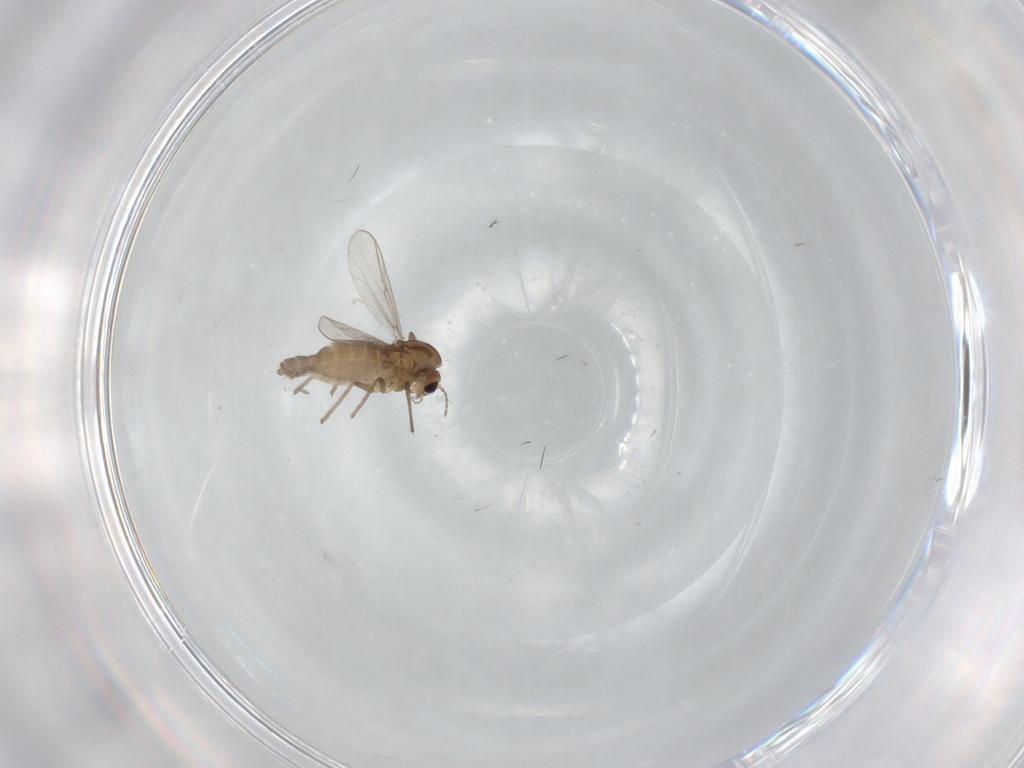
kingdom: Animalia
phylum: Arthropoda
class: Insecta
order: Diptera
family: Chironomidae
